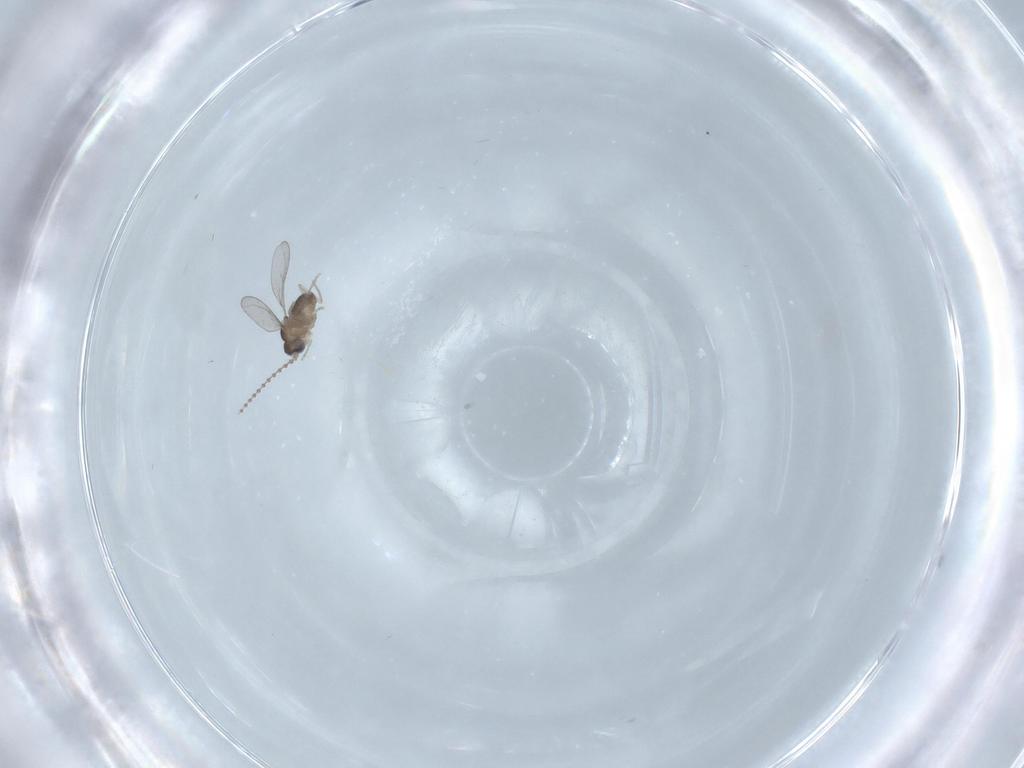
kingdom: Animalia
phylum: Arthropoda
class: Insecta
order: Diptera
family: Cecidomyiidae
